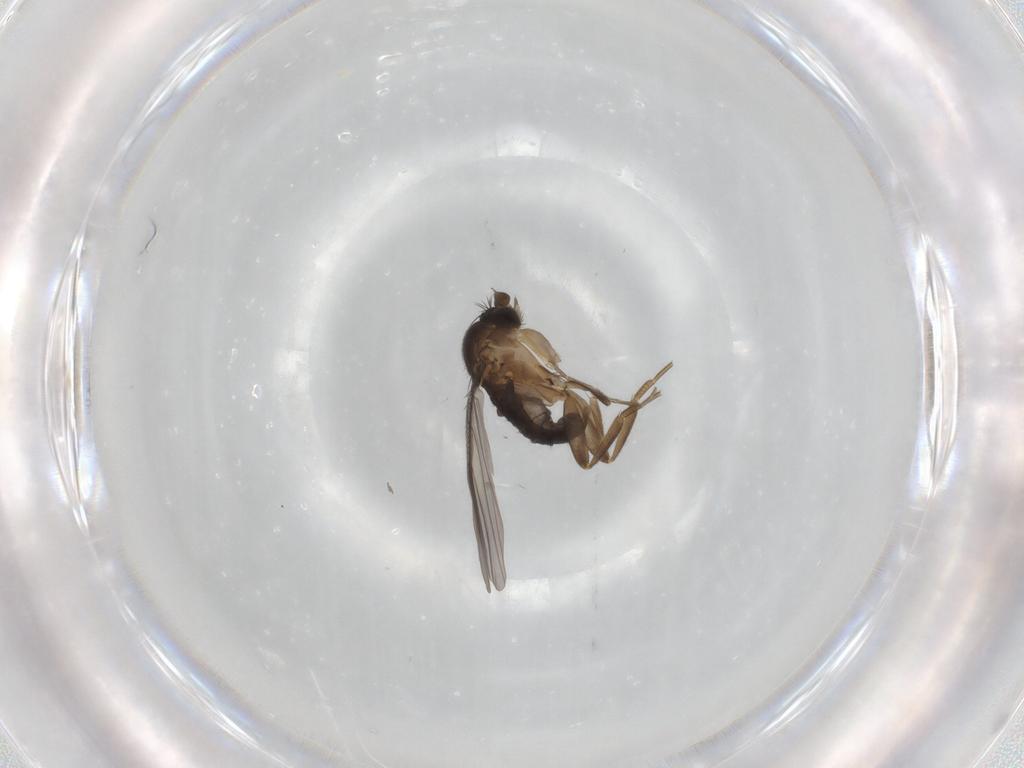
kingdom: Animalia
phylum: Arthropoda
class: Insecta
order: Diptera
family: Phoridae
